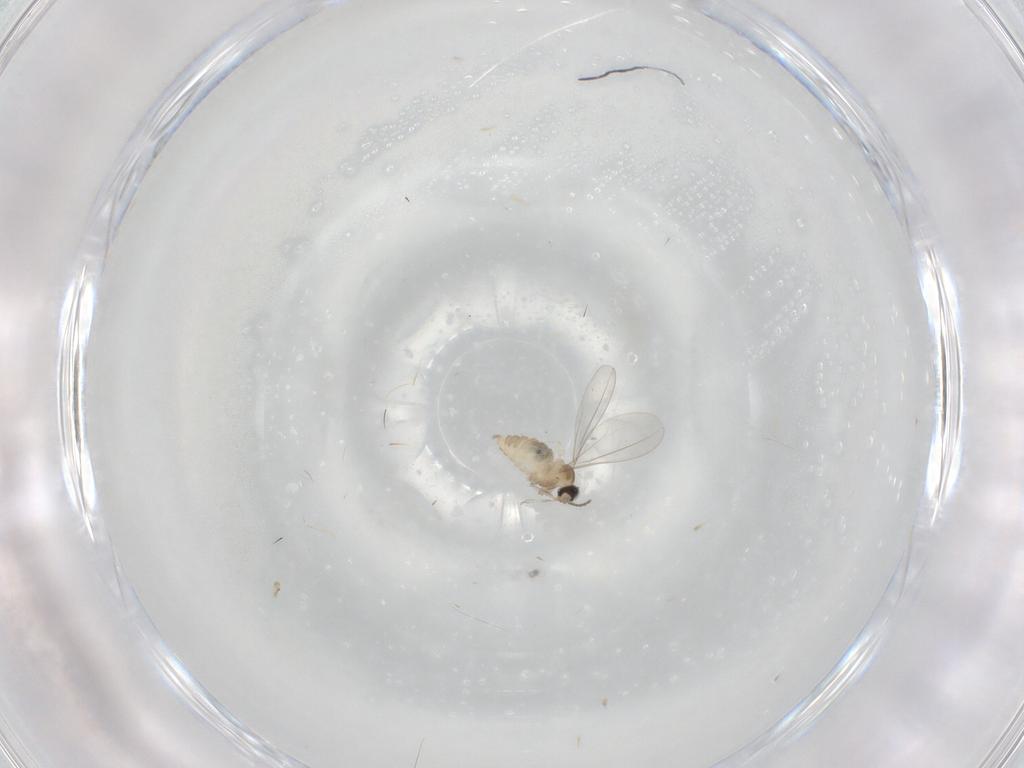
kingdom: Animalia
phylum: Arthropoda
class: Insecta
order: Diptera
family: Cecidomyiidae
